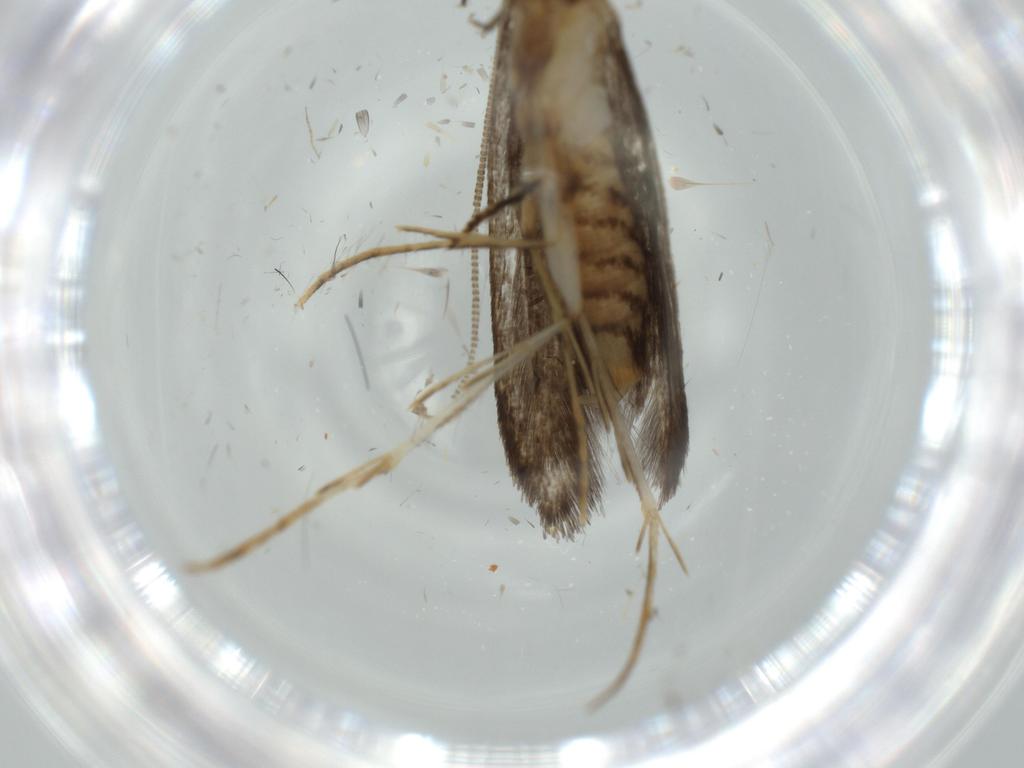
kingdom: Animalia
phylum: Arthropoda
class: Insecta
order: Lepidoptera
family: Tineidae
